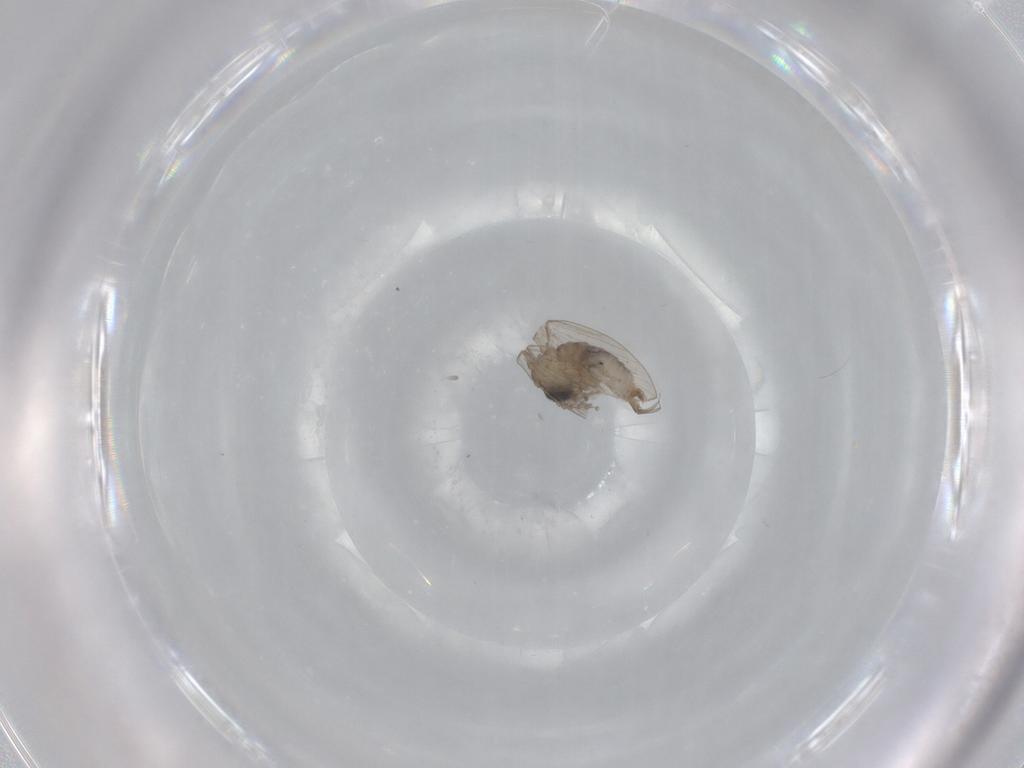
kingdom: Animalia
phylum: Arthropoda
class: Insecta
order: Diptera
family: Psychodidae
